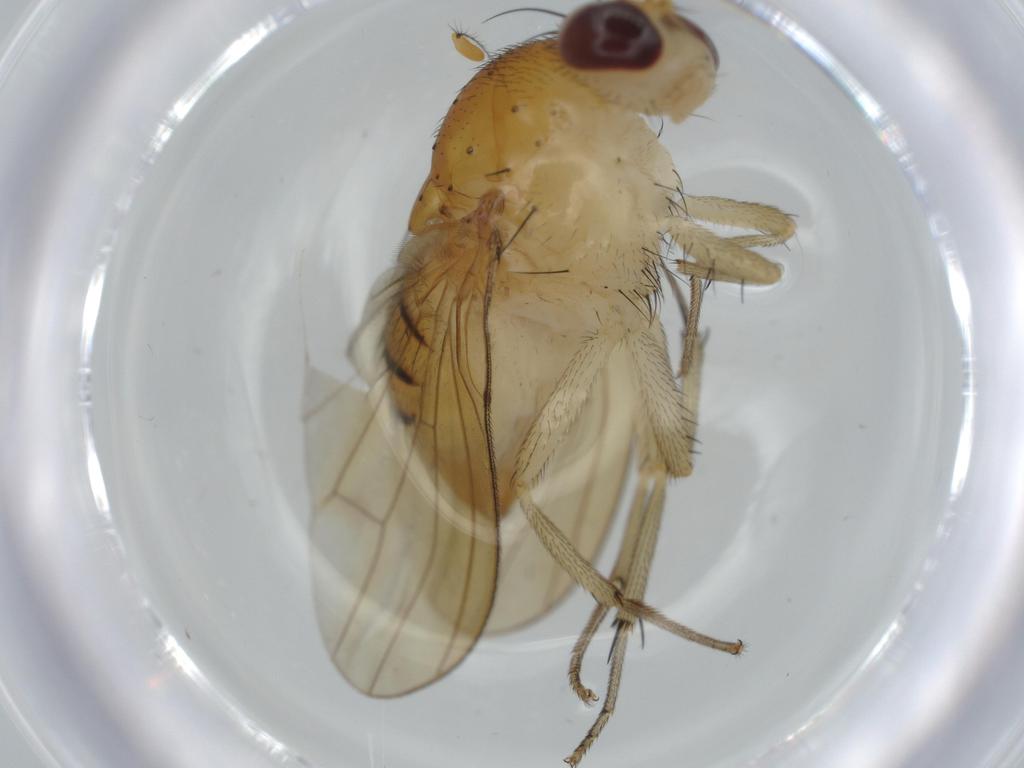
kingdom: Animalia
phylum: Arthropoda
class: Insecta
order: Diptera
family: Cecidomyiidae
